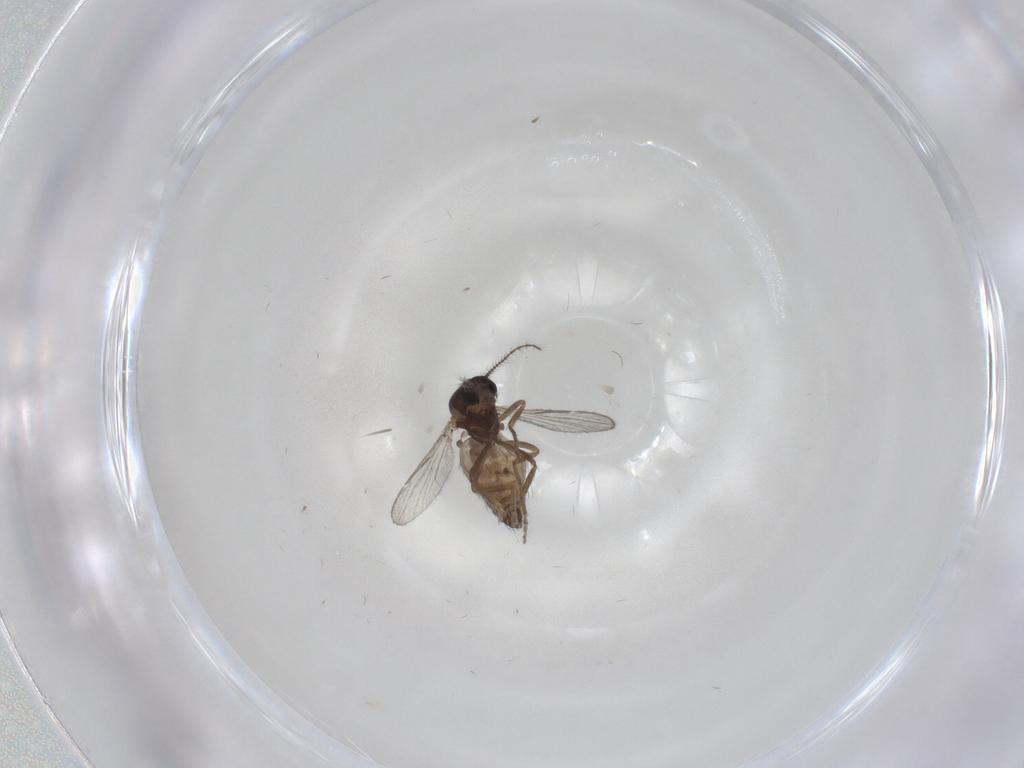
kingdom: Animalia
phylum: Arthropoda
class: Insecta
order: Diptera
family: Ceratopogonidae
